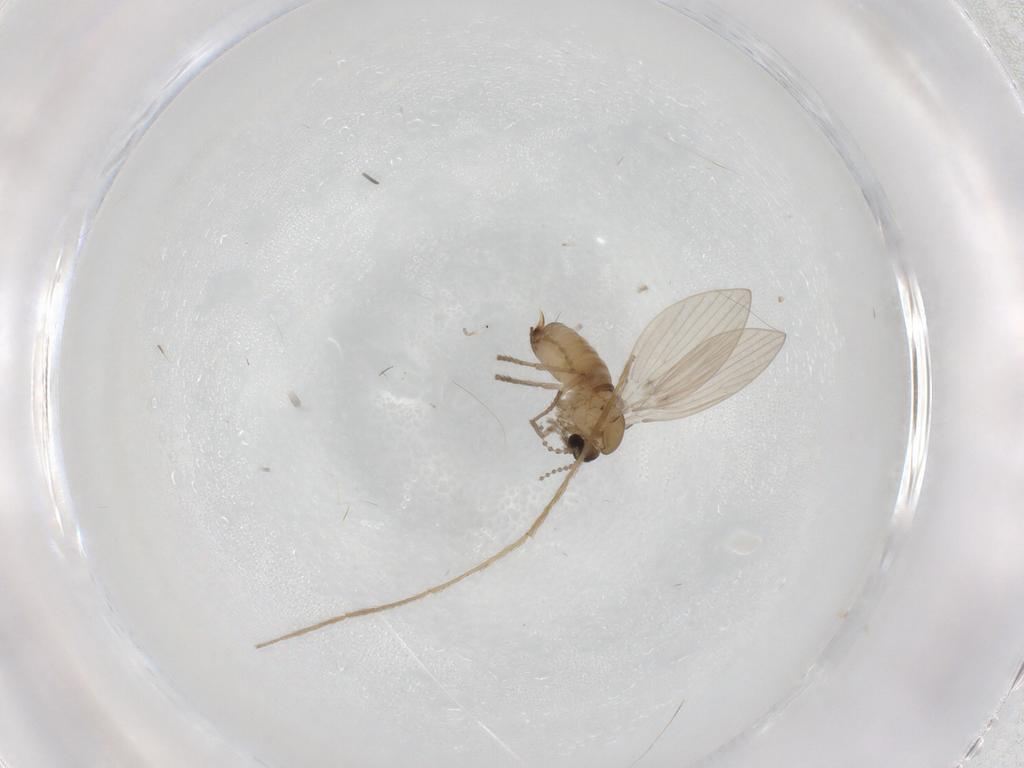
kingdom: Animalia
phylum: Arthropoda
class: Insecta
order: Diptera
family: Psychodidae
